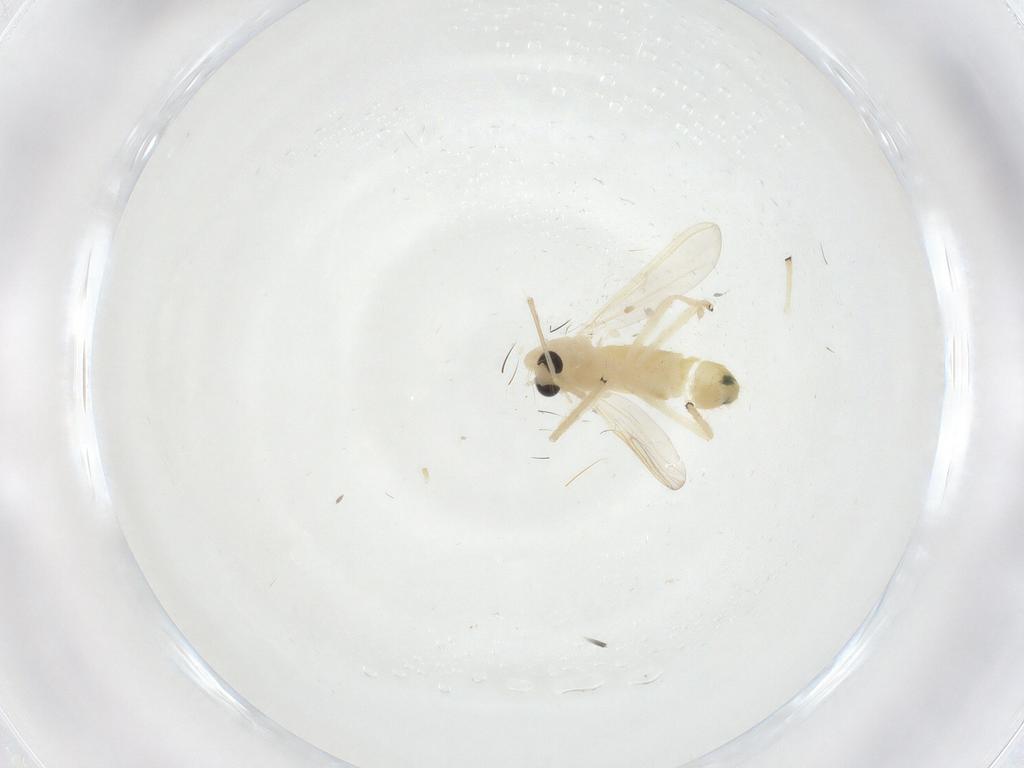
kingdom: Animalia
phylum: Arthropoda
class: Insecta
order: Diptera
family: Chironomidae
